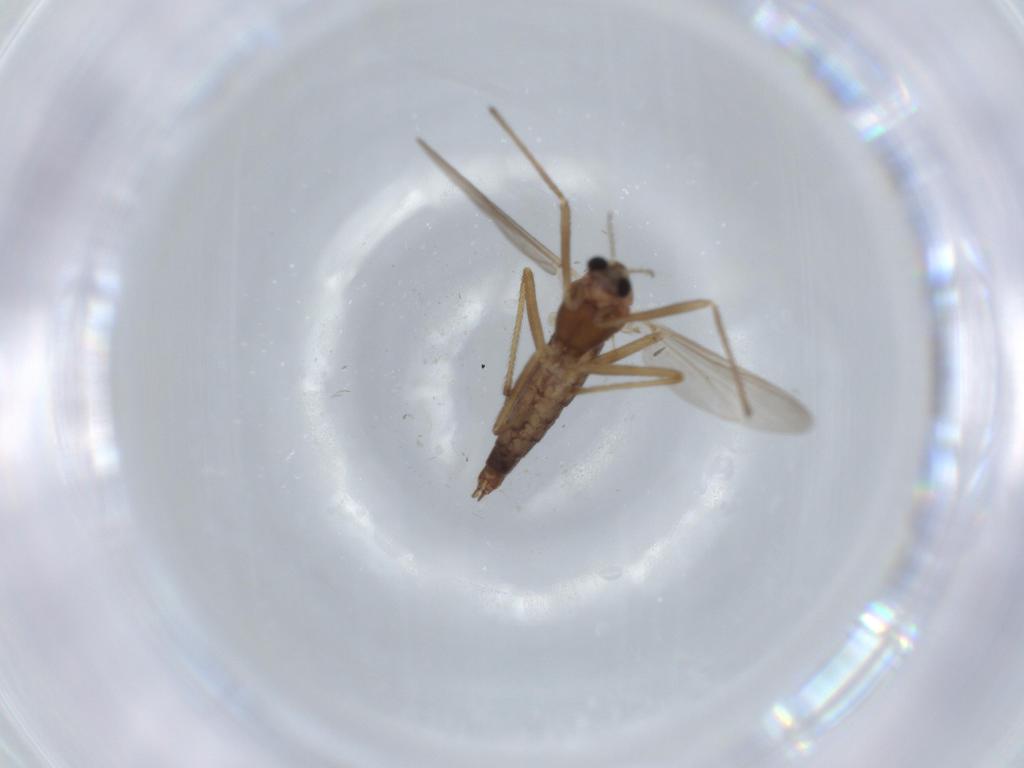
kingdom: Animalia
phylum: Arthropoda
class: Insecta
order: Diptera
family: Chironomidae
